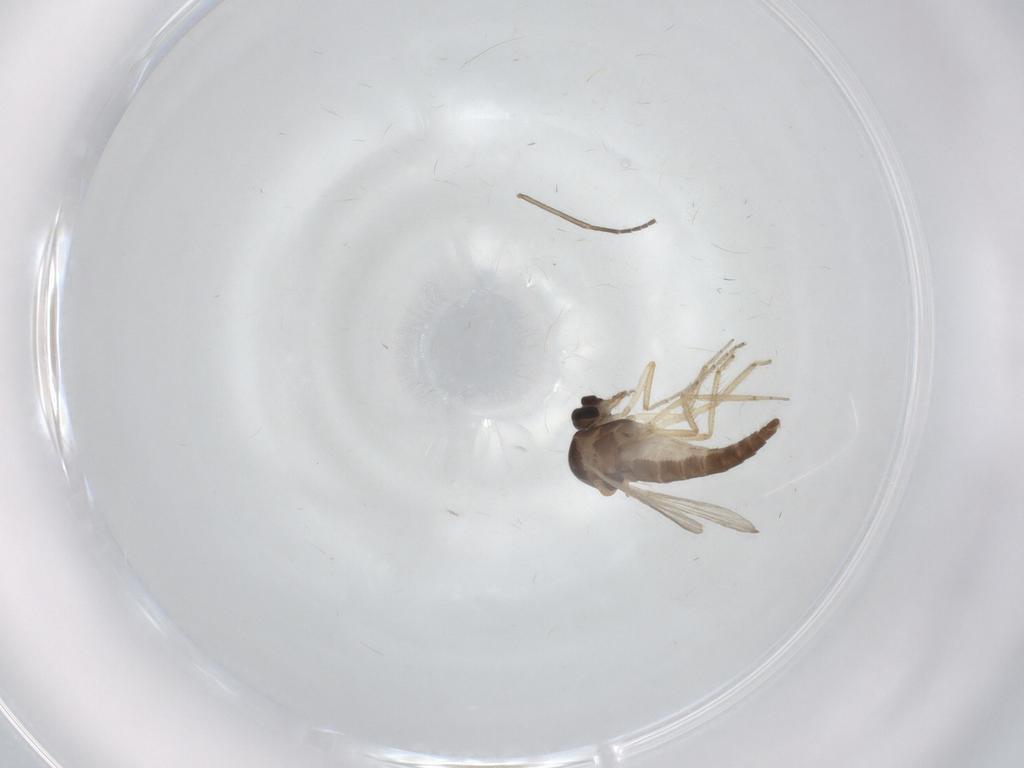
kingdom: Animalia
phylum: Arthropoda
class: Insecta
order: Diptera
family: Ceratopogonidae
